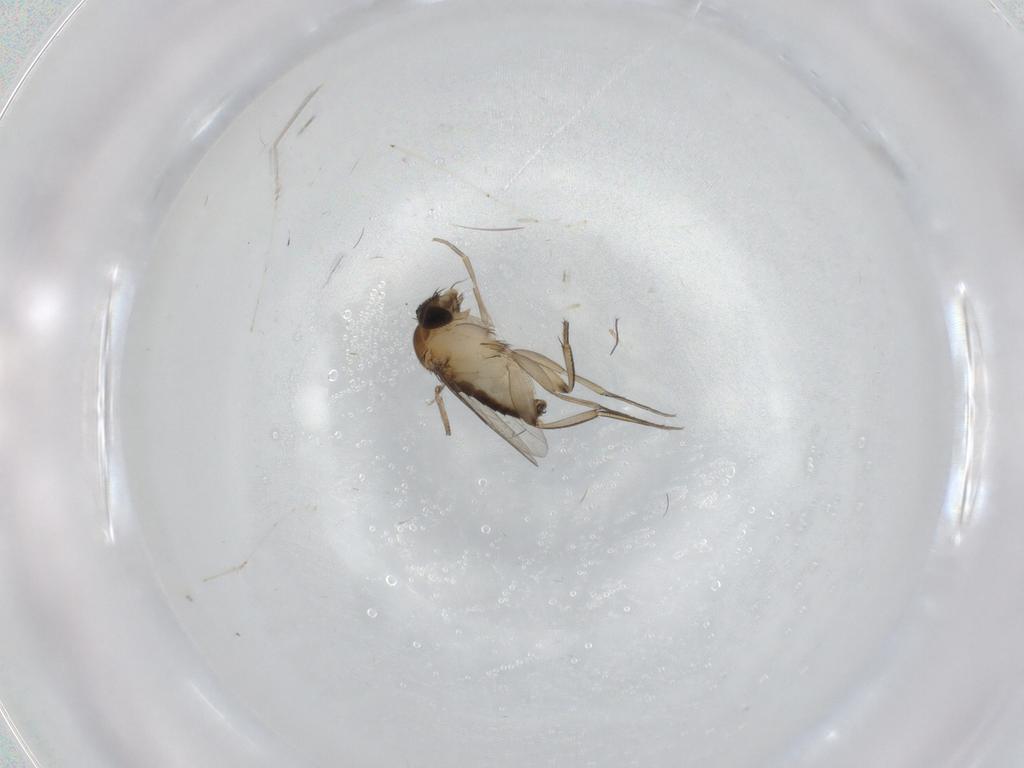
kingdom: Animalia
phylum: Arthropoda
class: Insecta
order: Diptera
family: Phoridae
